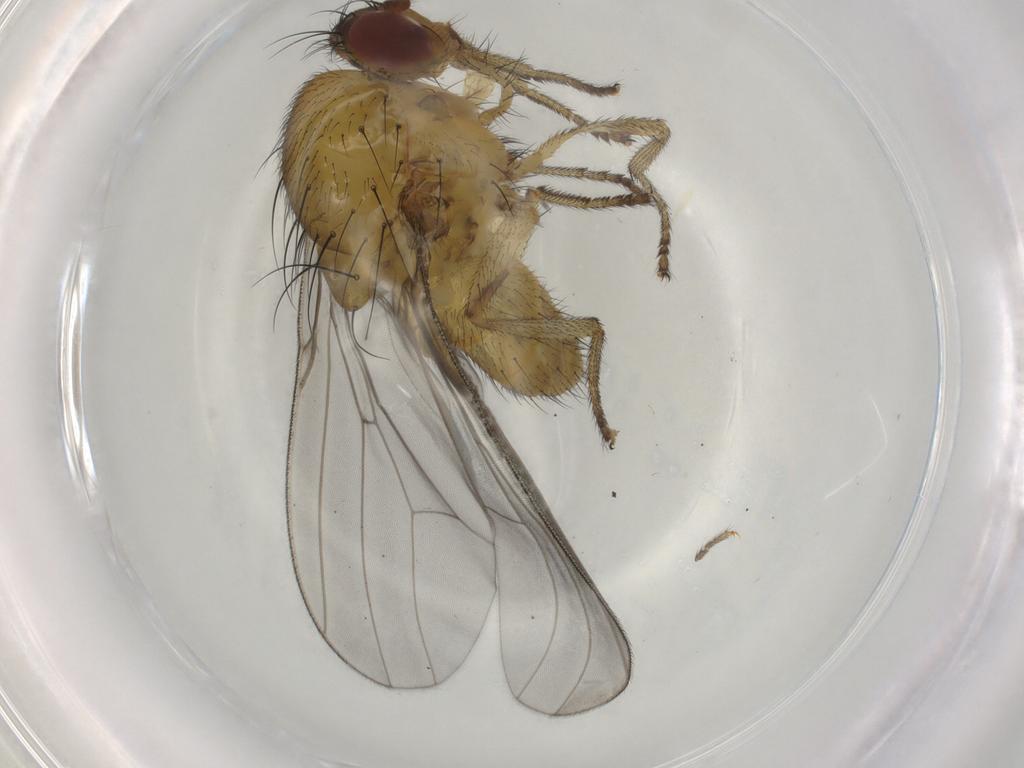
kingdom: Animalia
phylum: Arthropoda
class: Insecta
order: Diptera
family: Lauxaniidae
